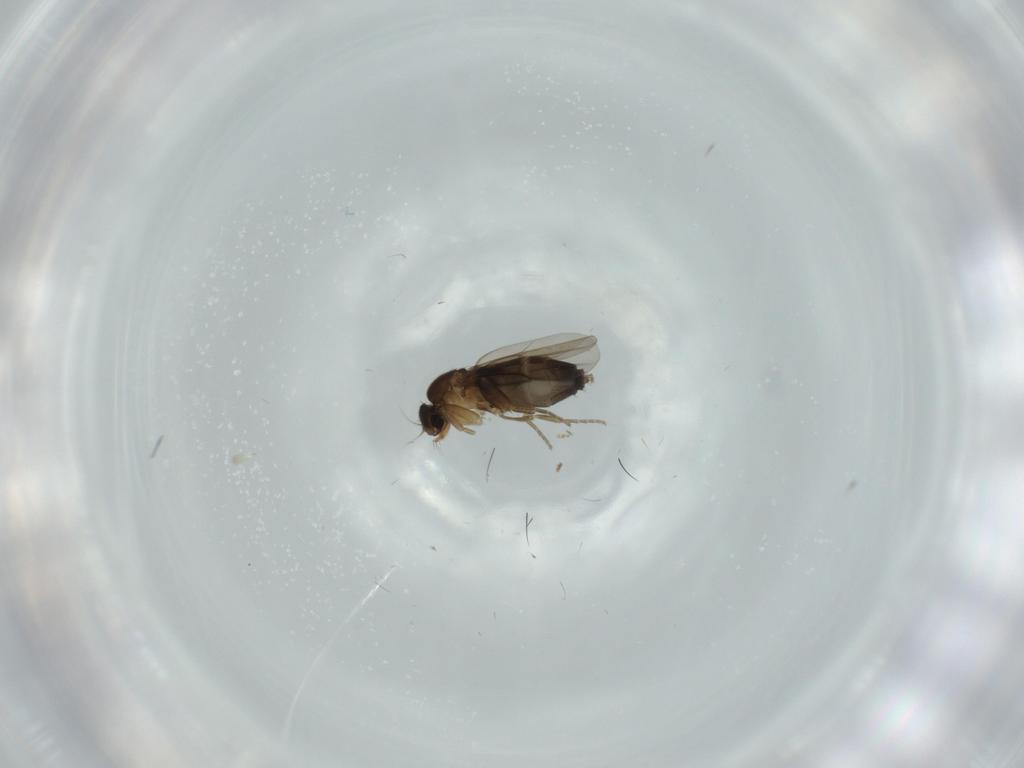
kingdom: Animalia
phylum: Arthropoda
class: Insecta
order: Diptera
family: Phoridae
